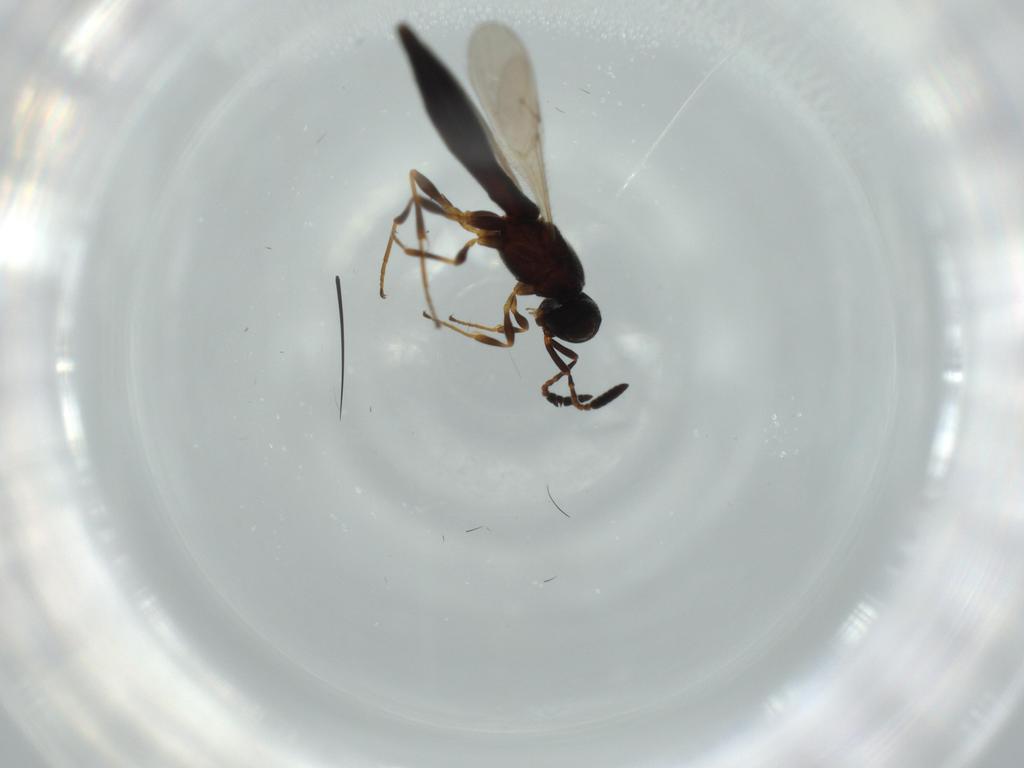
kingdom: Animalia
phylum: Arthropoda
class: Insecta
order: Hymenoptera
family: Scelionidae
